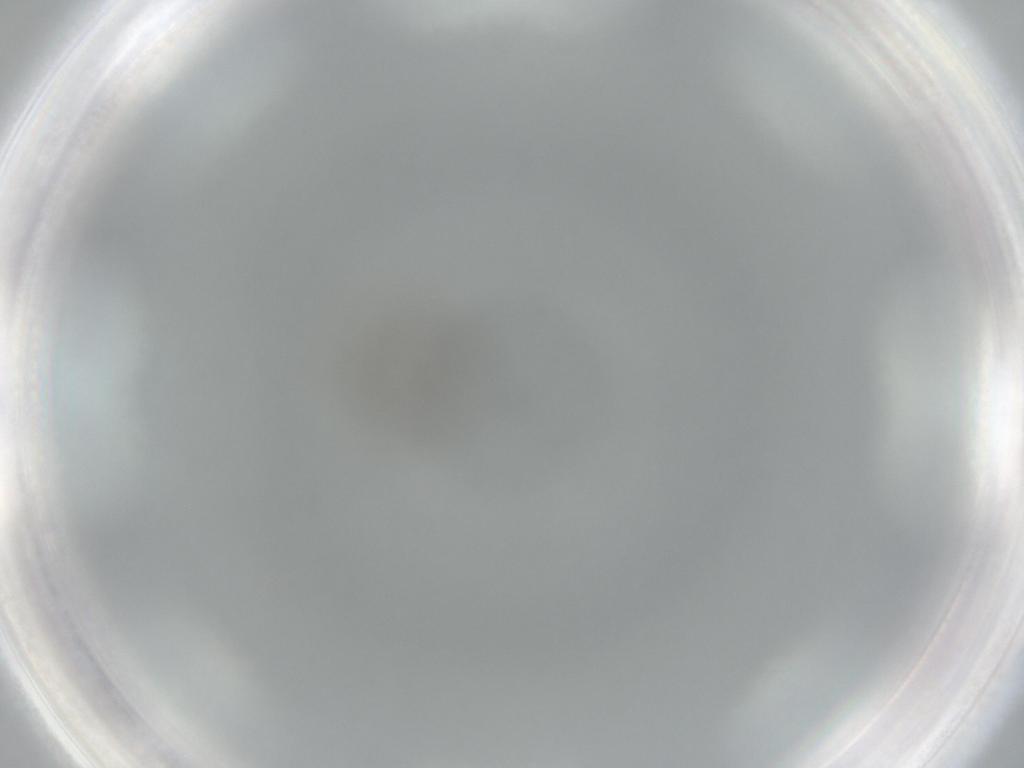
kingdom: Animalia
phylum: Arthropoda
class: Insecta
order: Diptera
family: Phoridae
